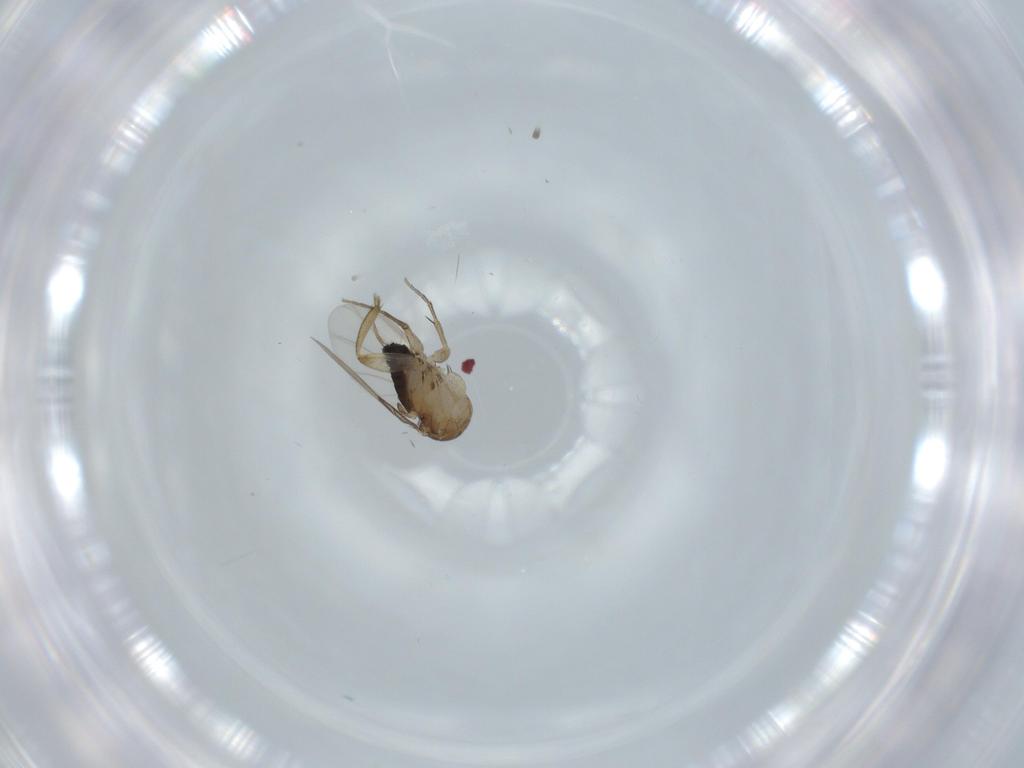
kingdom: Animalia
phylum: Arthropoda
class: Insecta
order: Diptera
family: Phoridae
